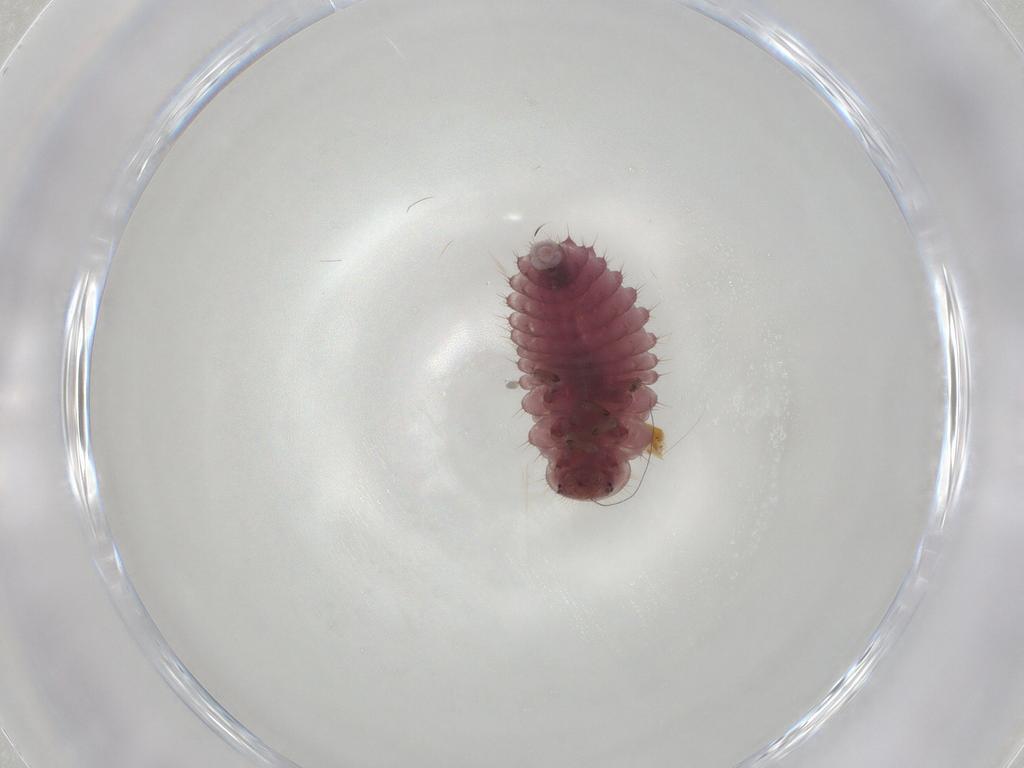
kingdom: Animalia
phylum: Arthropoda
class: Insecta
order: Coleoptera
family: Coccinellidae
